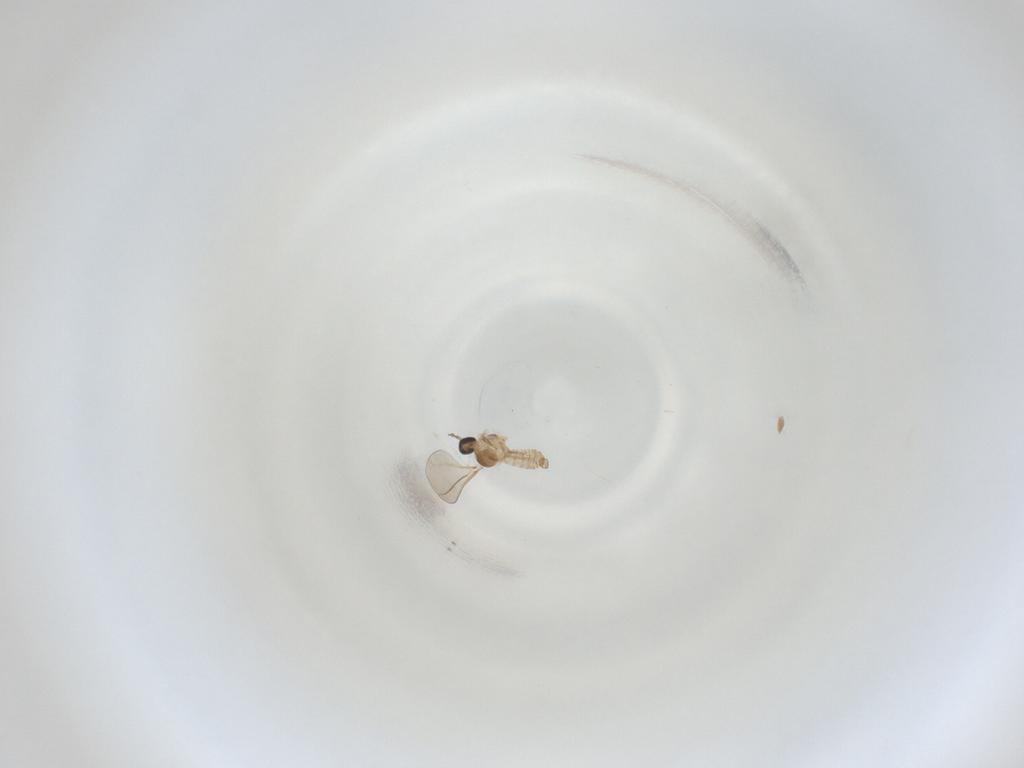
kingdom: Animalia
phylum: Arthropoda
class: Insecta
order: Diptera
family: Cecidomyiidae
